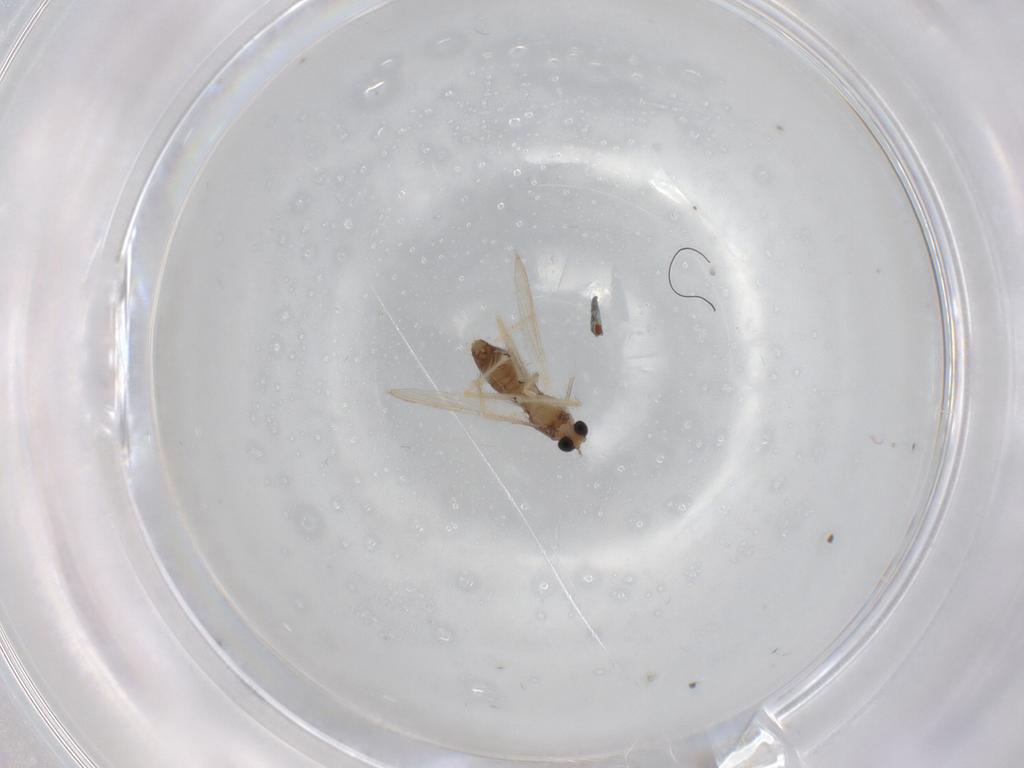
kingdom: Animalia
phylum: Arthropoda
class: Insecta
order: Diptera
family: Chironomidae
